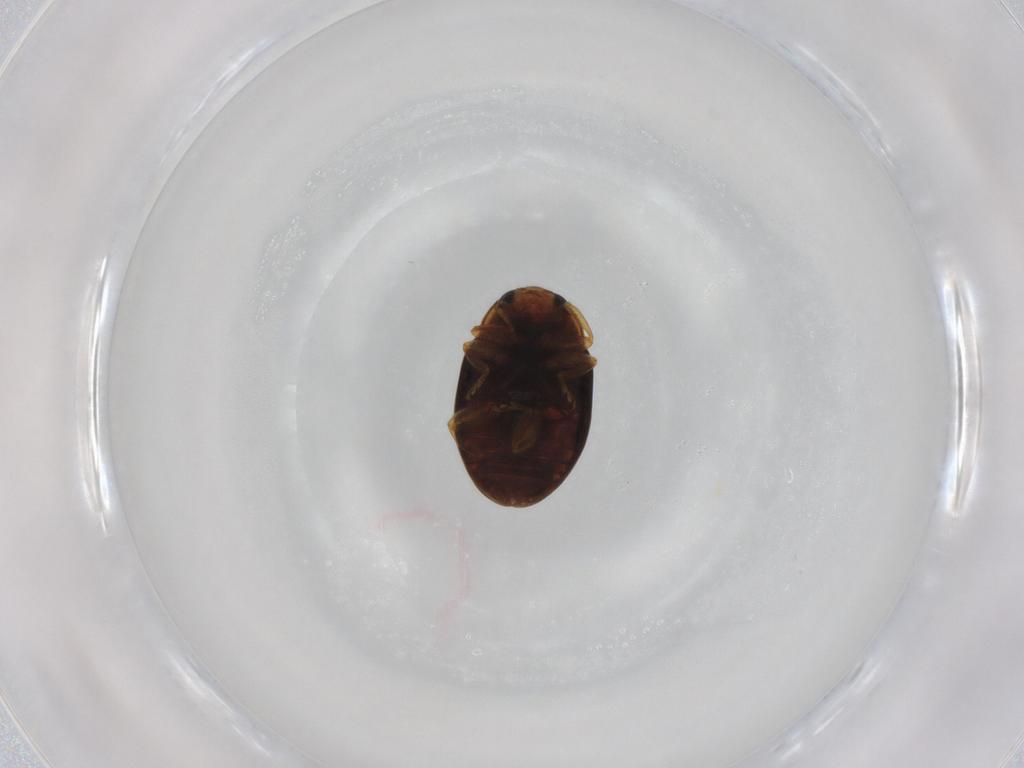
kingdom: Animalia
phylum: Arthropoda
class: Insecta
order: Coleoptera
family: Coccinellidae
